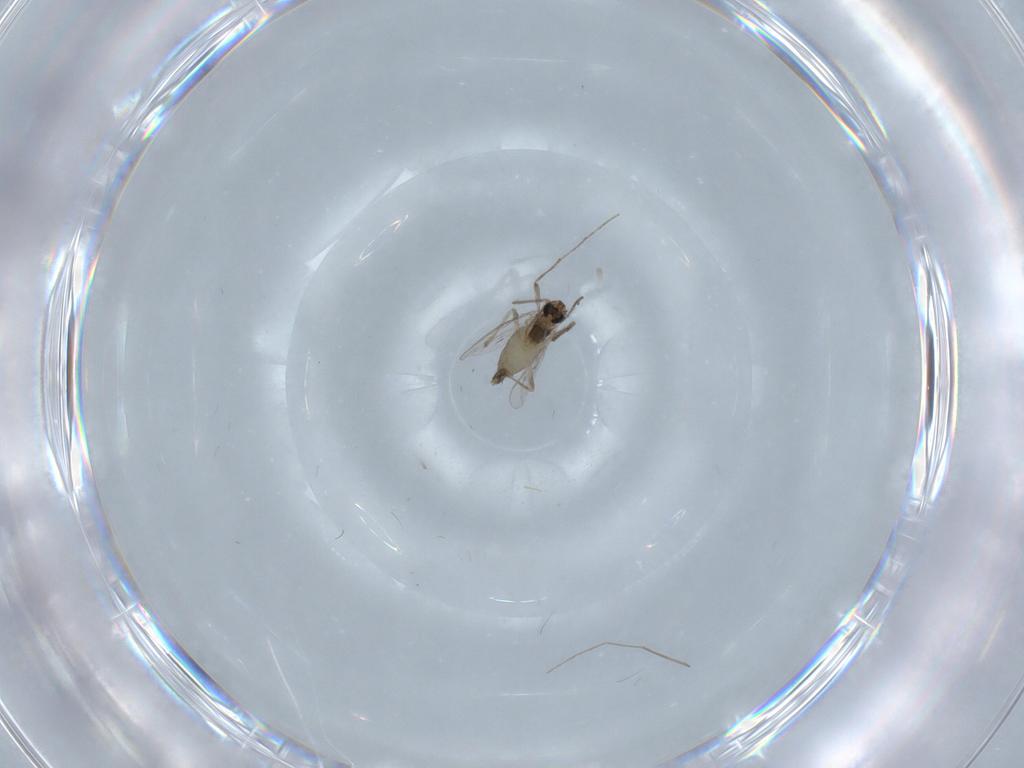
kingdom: Animalia
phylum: Arthropoda
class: Insecta
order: Diptera
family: Chironomidae
